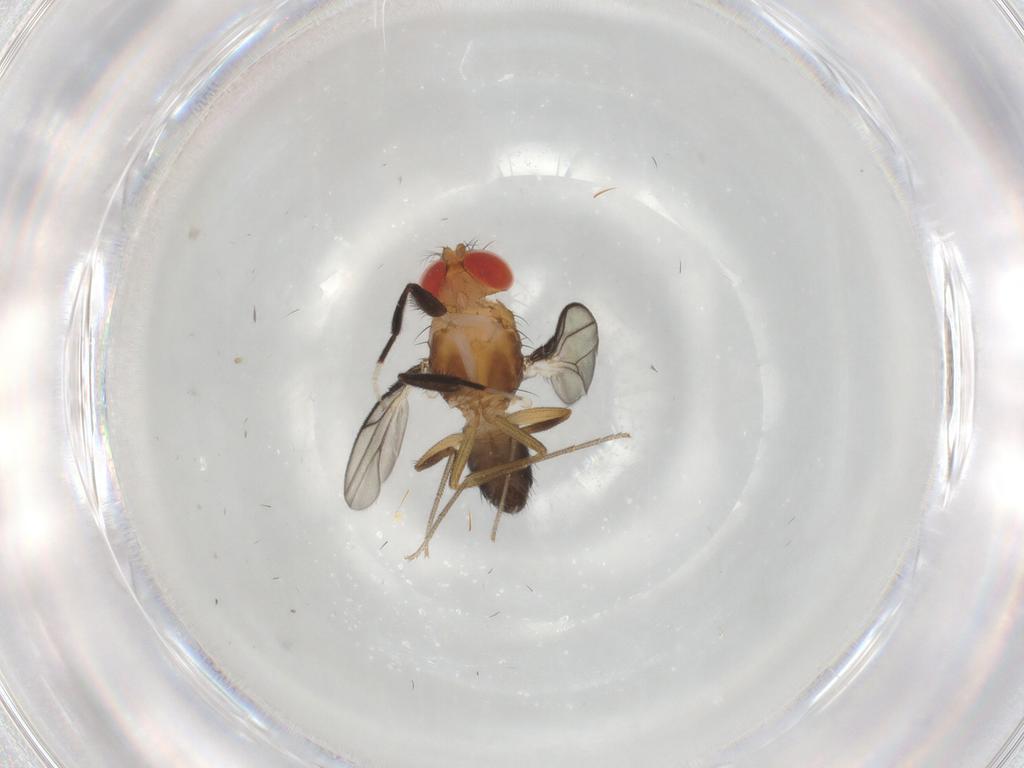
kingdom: Animalia
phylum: Arthropoda
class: Insecta
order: Diptera
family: Drosophilidae
